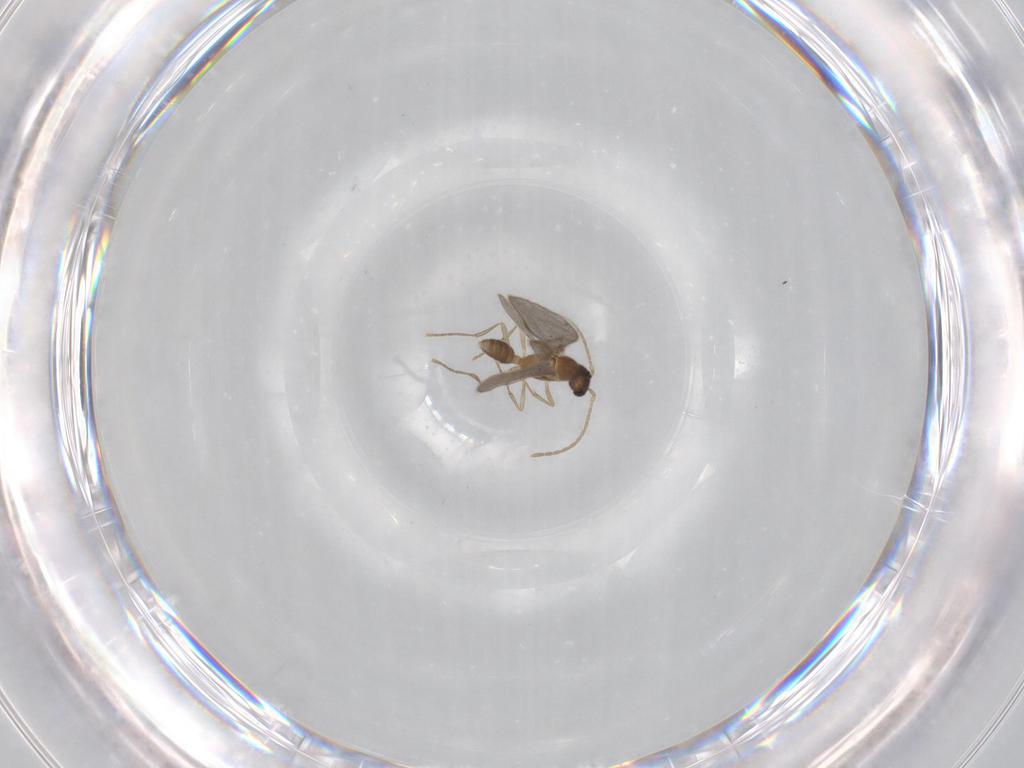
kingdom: Animalia
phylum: Arthropoda
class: Insecta
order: Hymenoptera
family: Formicidae
